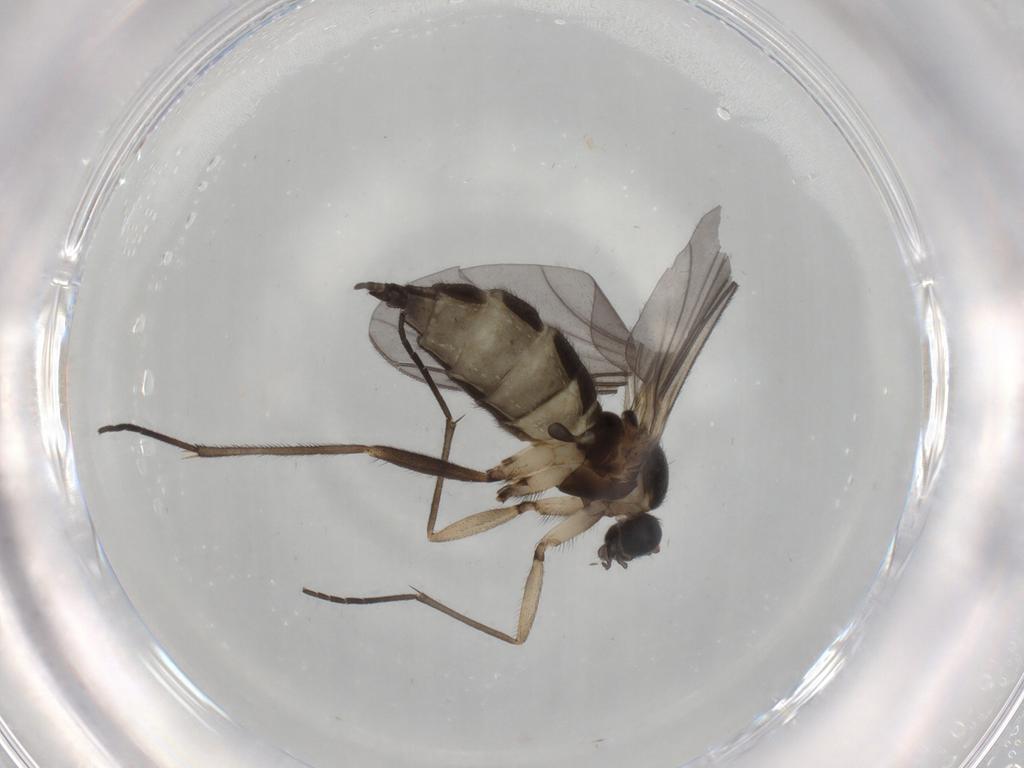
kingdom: Animalia
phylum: Arthropoda
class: Insecta
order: Diptera
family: Sciaridae
